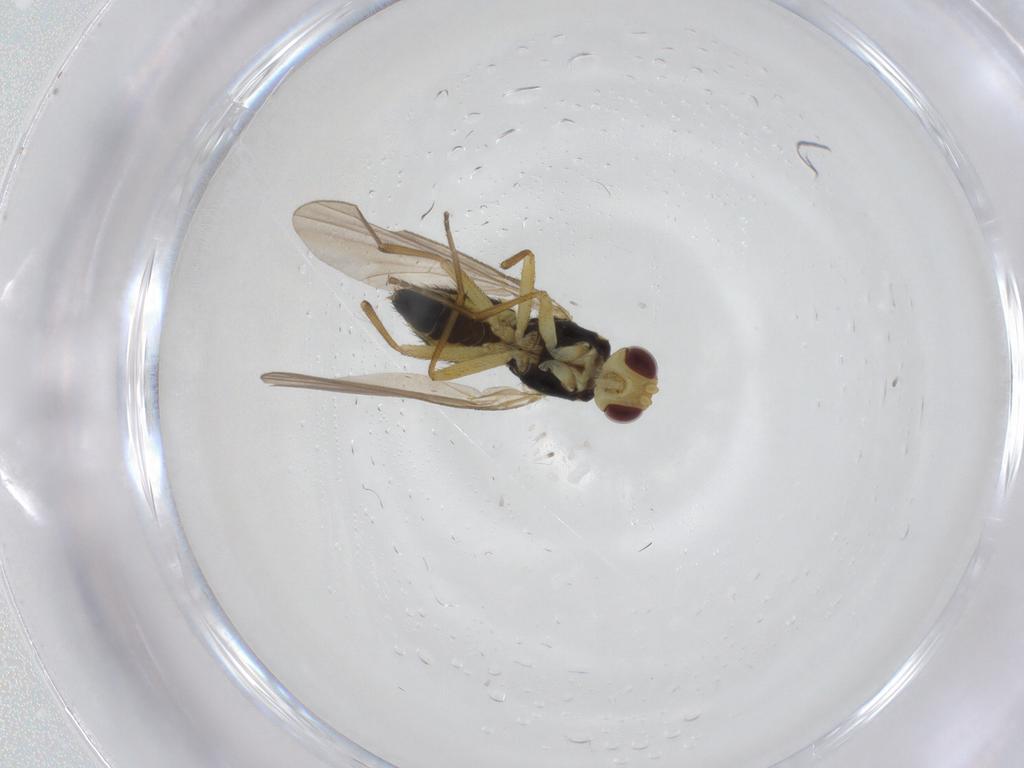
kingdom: Animalia
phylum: Arthropoda
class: Insecta
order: Diptera
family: Agromyzidae
